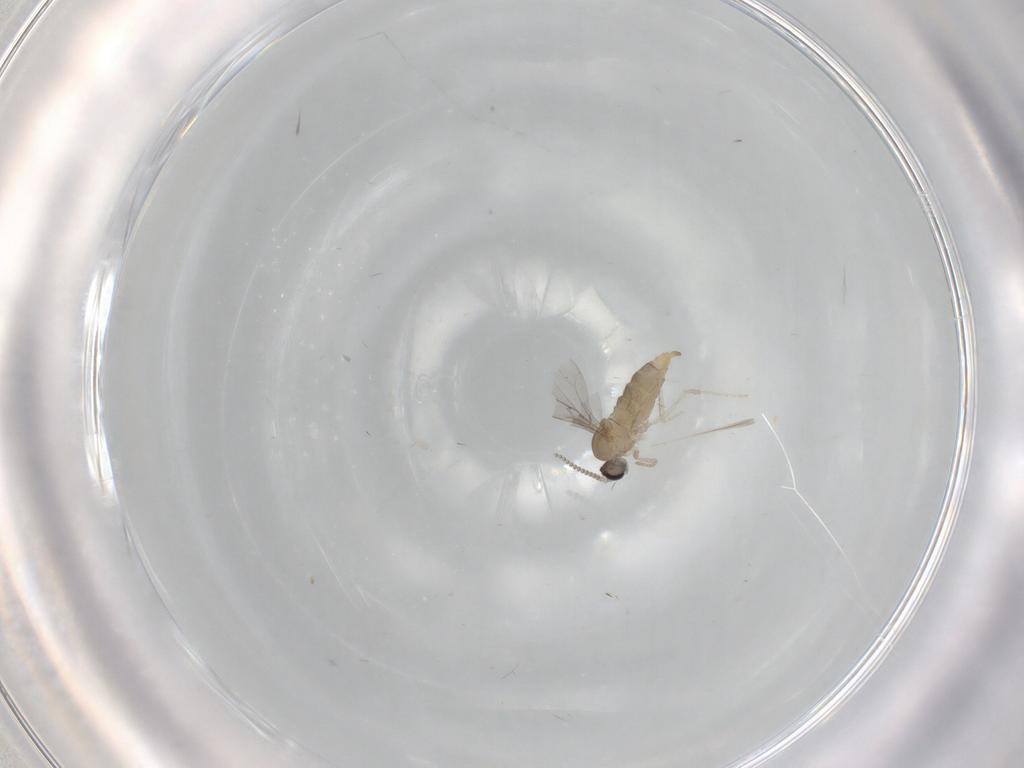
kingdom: Animalia
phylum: Arthropoda
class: Insecta
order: Diptera
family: Cecidomyiidae
